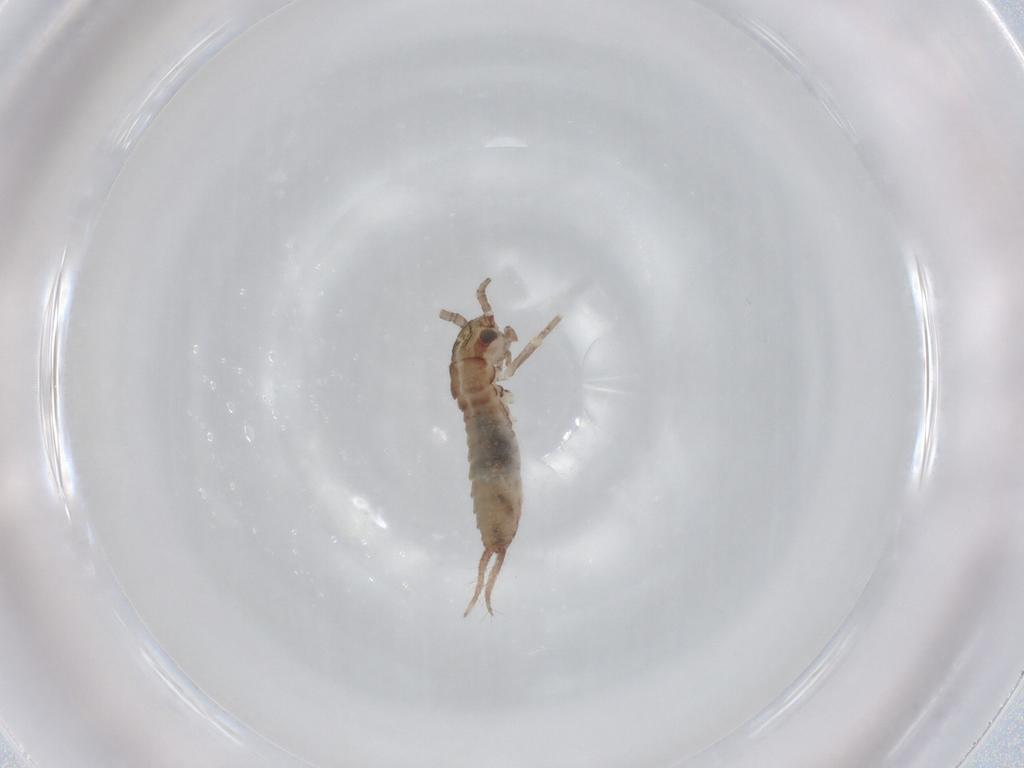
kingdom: Animalia
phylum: Arthropoda
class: Insecta
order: Orthoptera
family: Mogoplistidae
